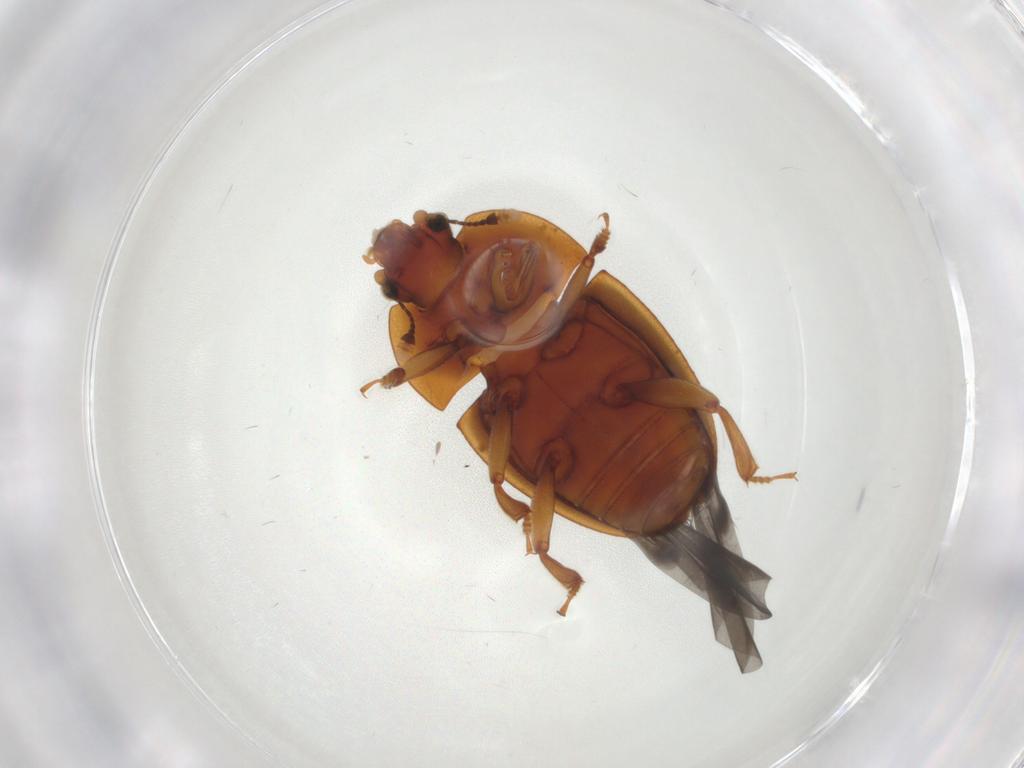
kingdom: Animalia
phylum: Arthropoda
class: Insecta
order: Coleoptera
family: Nitidulidae
